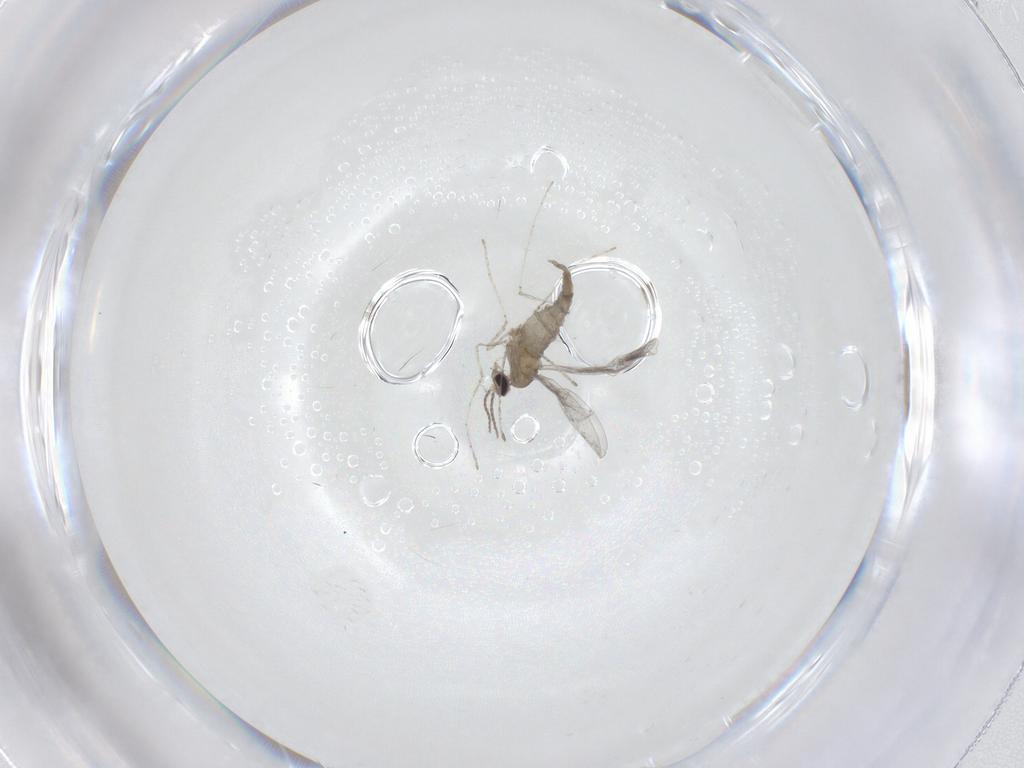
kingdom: Animalia
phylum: Arthropoda
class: Insecta
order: Diptera
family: Cecidomyiidae
